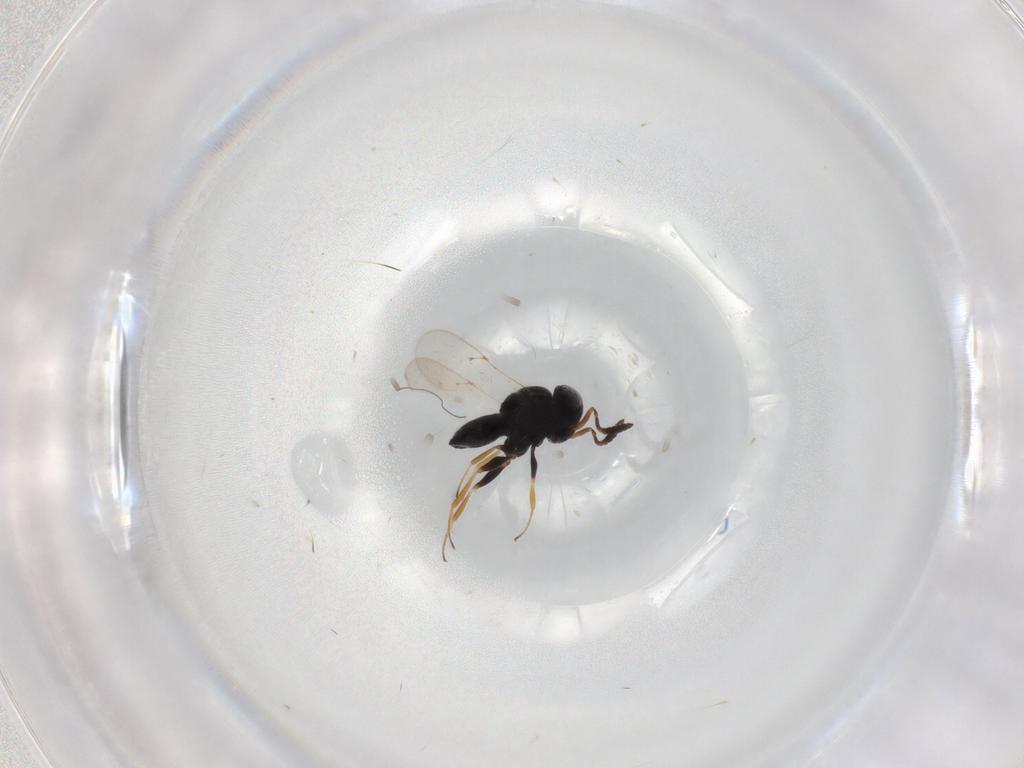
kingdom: Animalia
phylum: Arthropoda
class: Insecta
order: Coleoptera
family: Curculionidae
